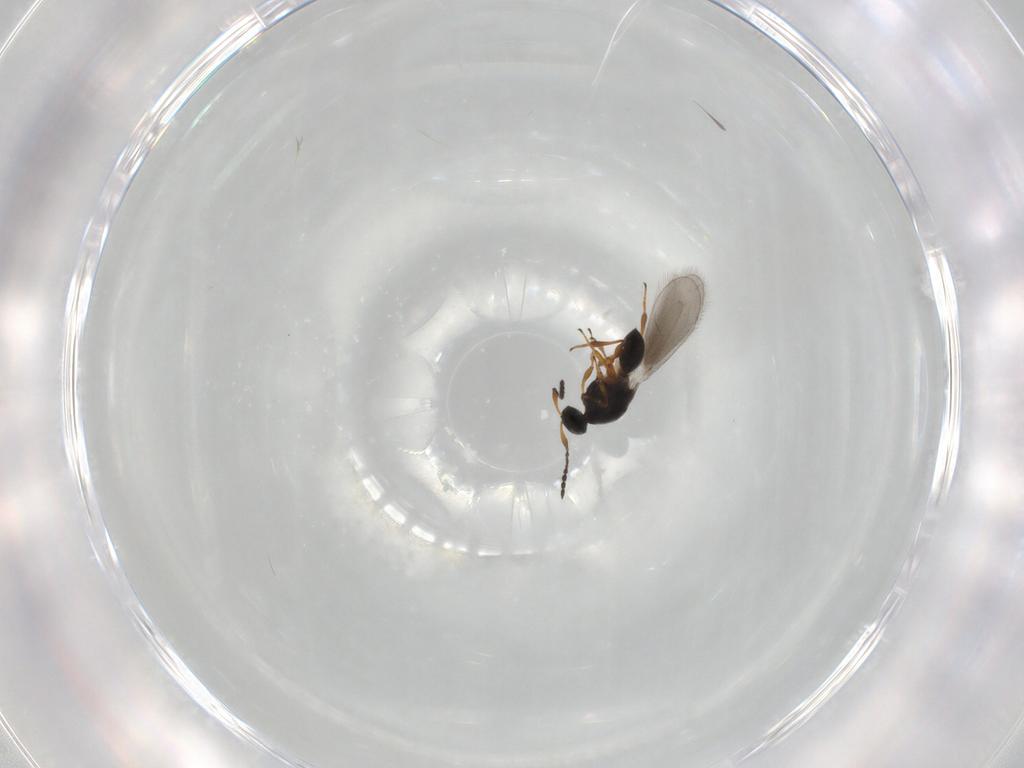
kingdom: Animalia
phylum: Arthropoda
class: Insecta
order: Hymenoptera
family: Platygastridae
